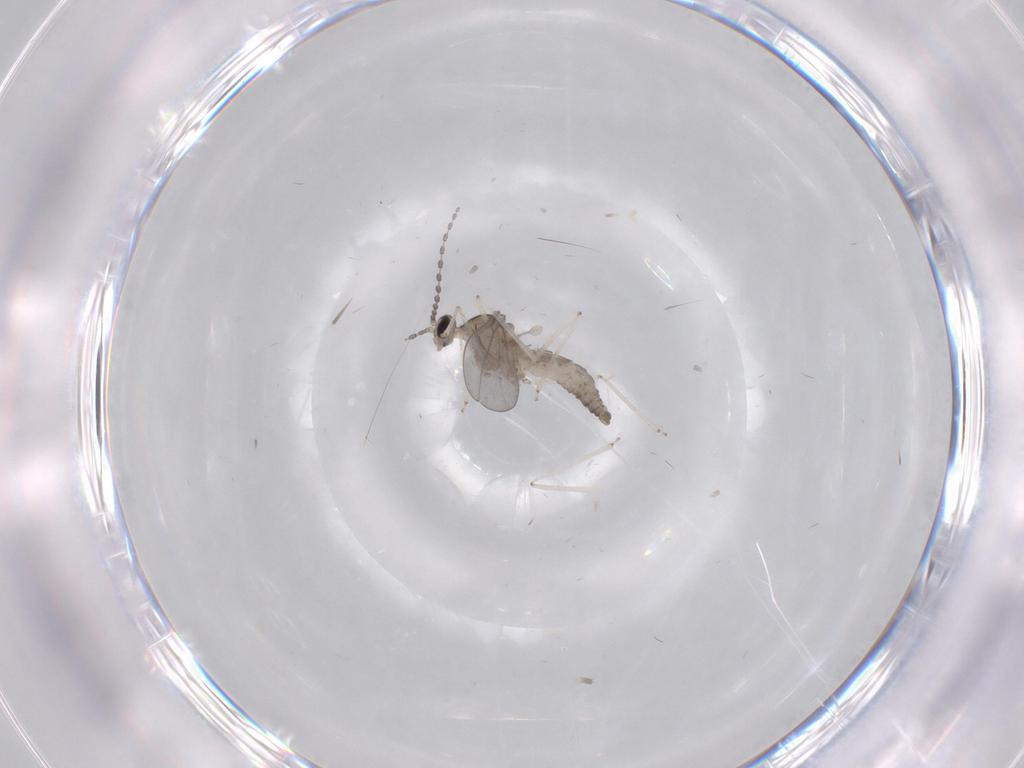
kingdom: Animalia
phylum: Arthropoda
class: Insecta
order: Diptera
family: Cecidomyiidae
